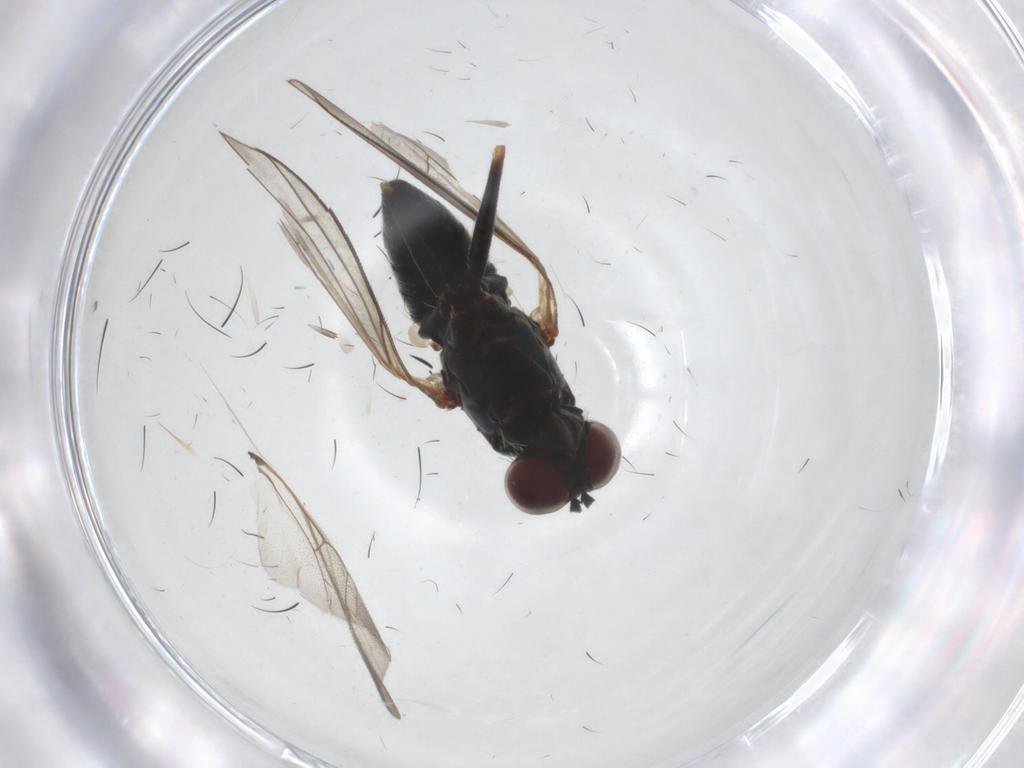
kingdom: Animalia
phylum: Arthropoda
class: Insecta
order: Diptera
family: Dolichopodidae
